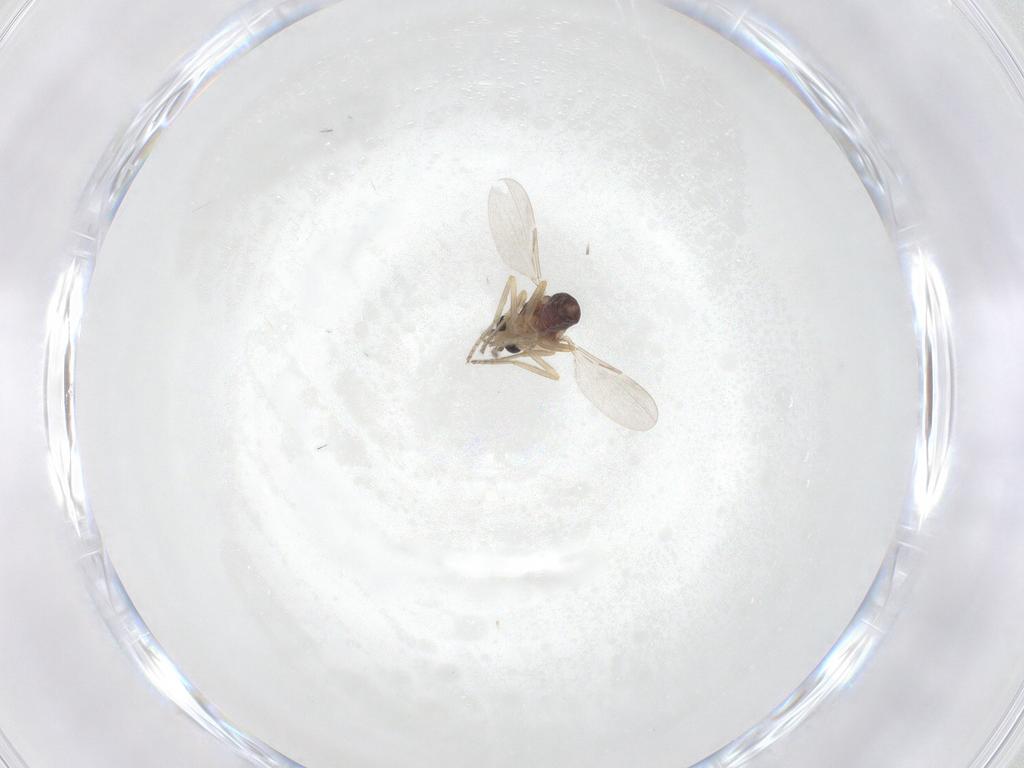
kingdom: Animalia
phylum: Arthropoda
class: Insecta
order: Diptera
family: Ceratopogonidae
